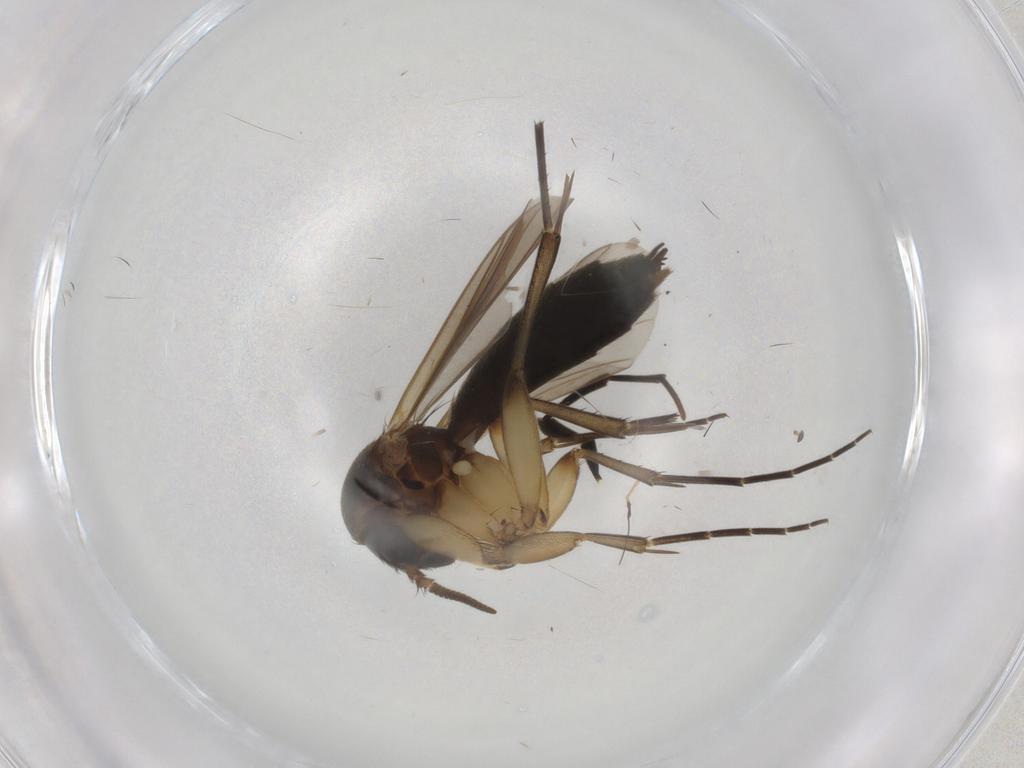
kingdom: Animalia
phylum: Arthropoda
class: Insecta
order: Diptera
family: Mycetophilidae
